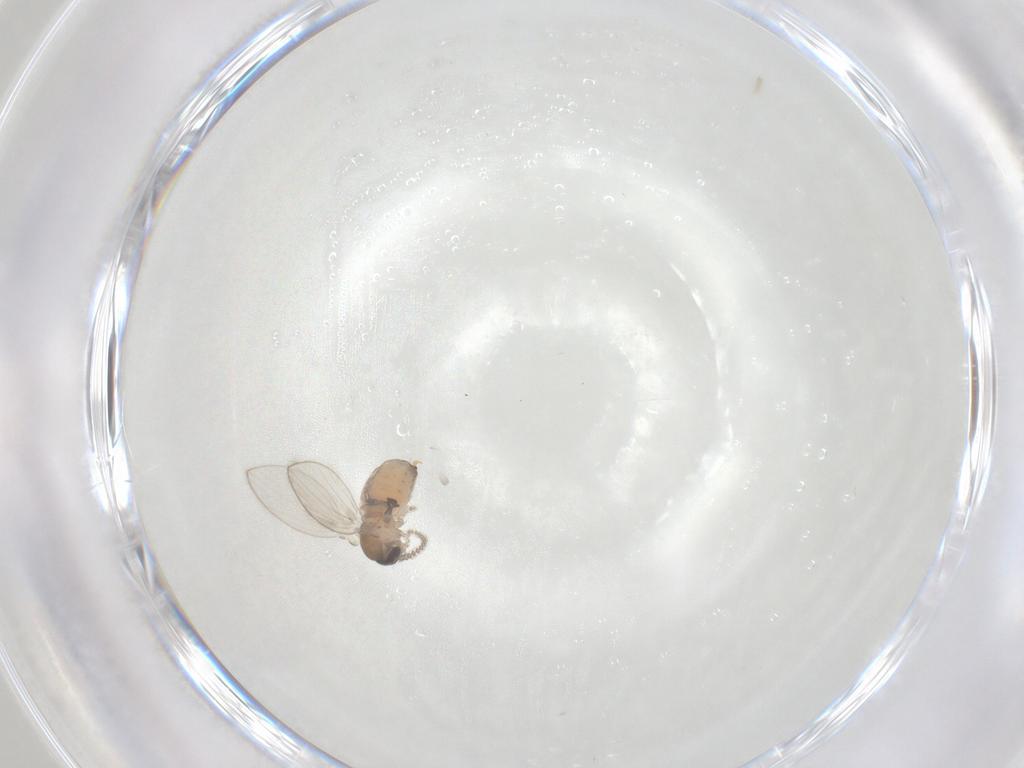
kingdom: Animalia
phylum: Arthropoda
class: Insecta
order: Diptera
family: Psychodidae
